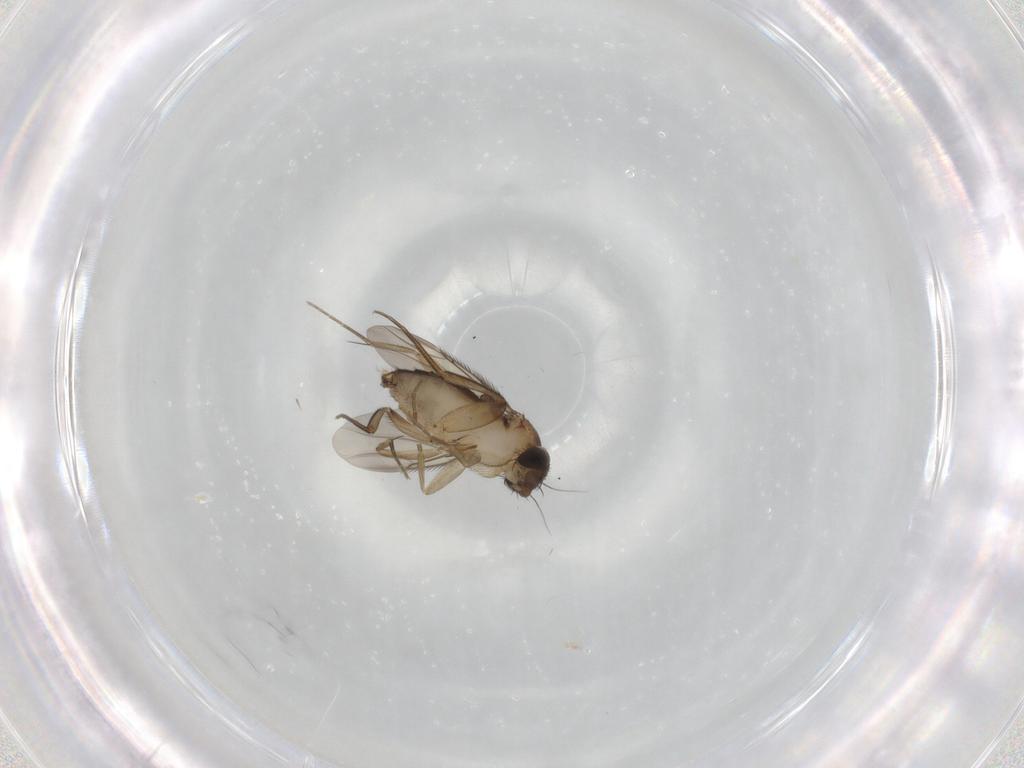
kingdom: Animalia
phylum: Arthropoda
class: Insecta
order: Diptera
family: Phoridae
